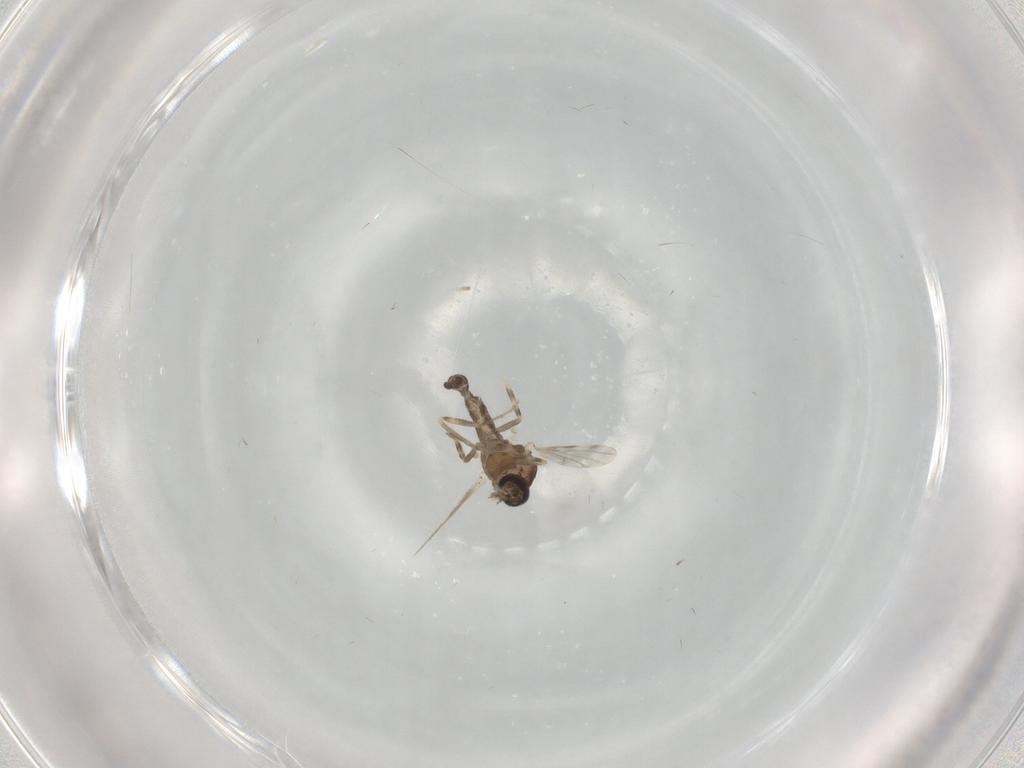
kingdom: Animalia
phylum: Arthropoda
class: Insecta
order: Diptera
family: Ceratopogonidae
